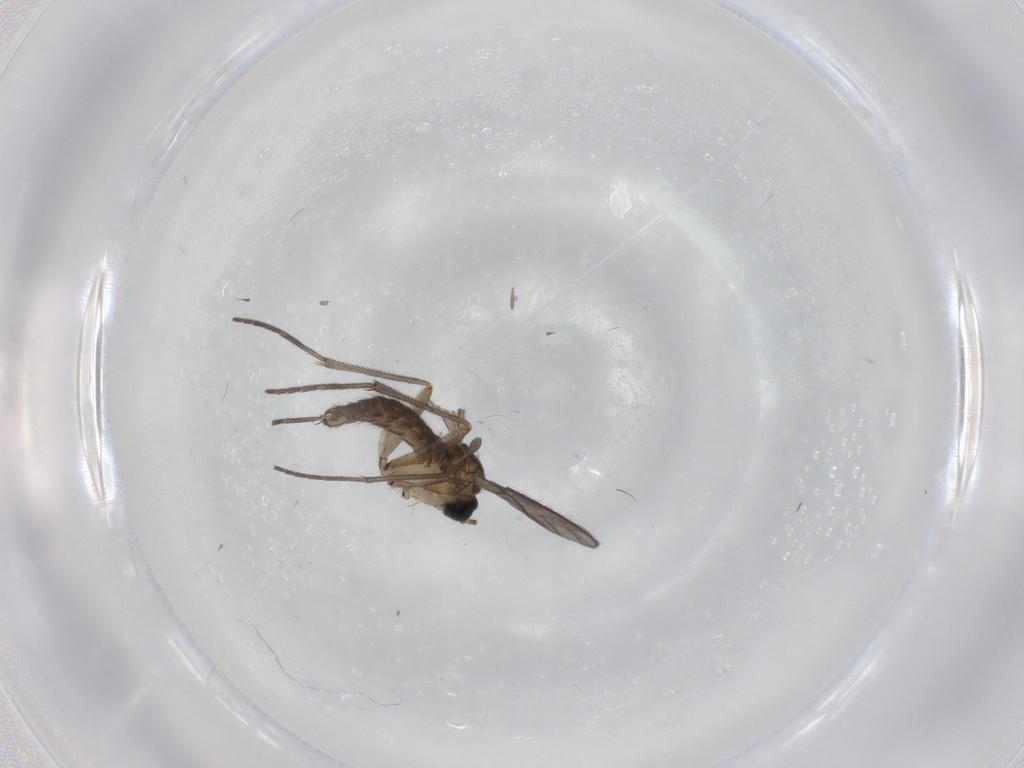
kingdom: Animalia
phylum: Arthropoda
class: Insecta
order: Diptera
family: Sciaridae
